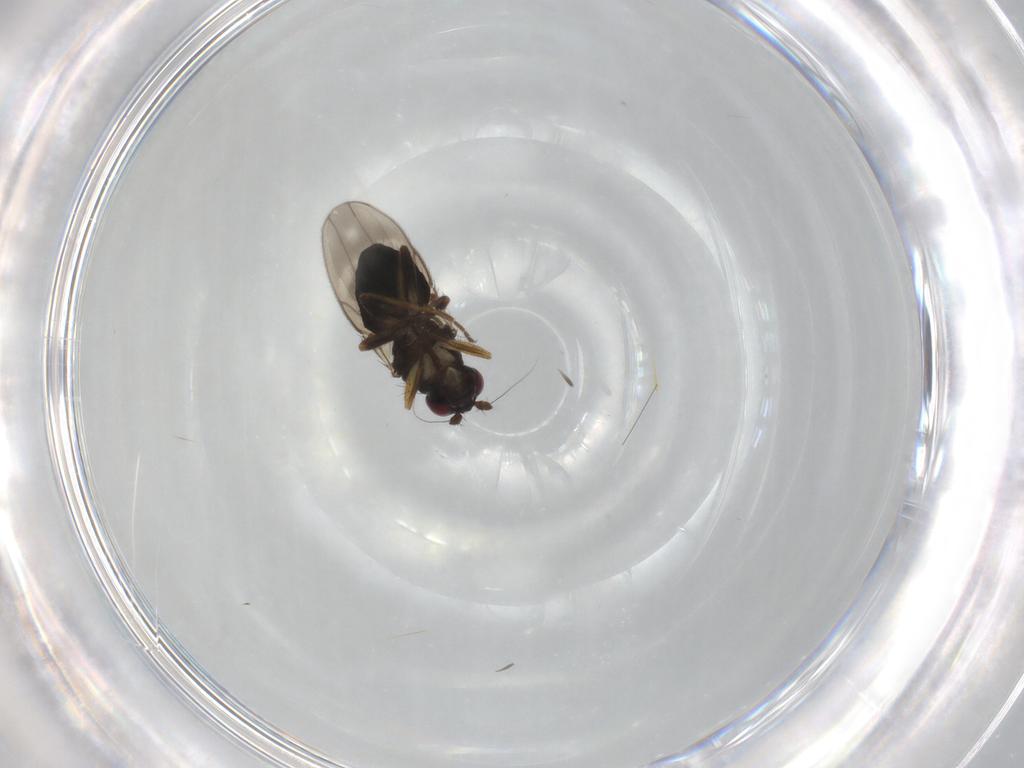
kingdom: Animalia
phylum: Arthropoda
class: Insecta
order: Diptera
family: Sphaeroceridae
